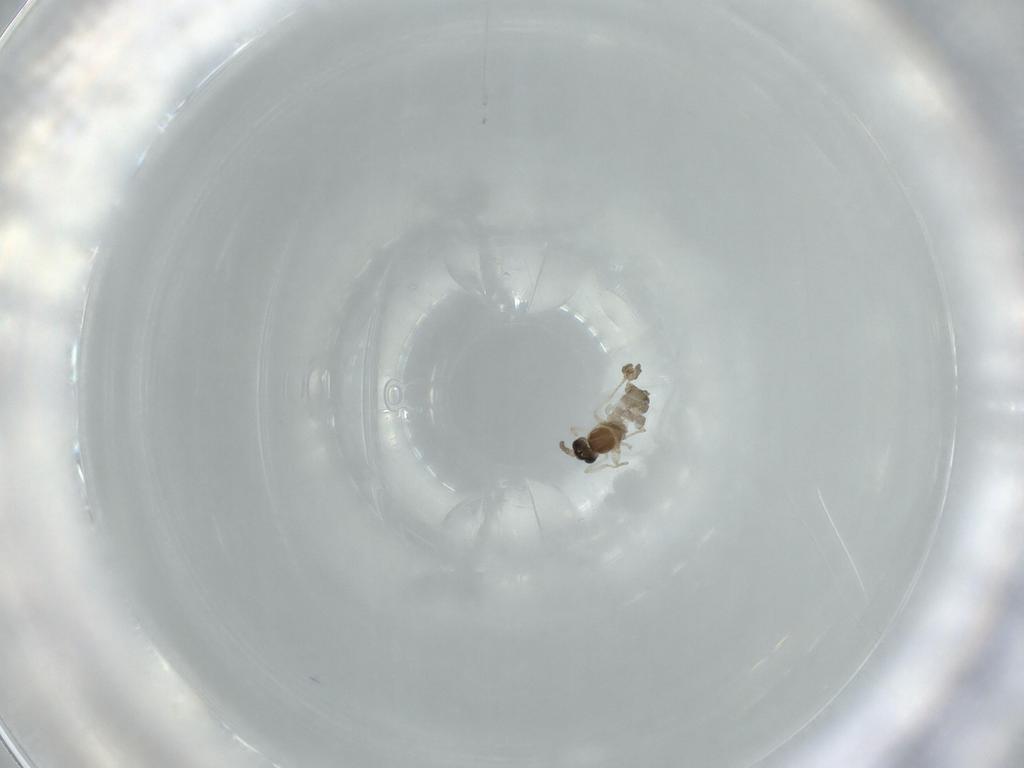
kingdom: Animalia
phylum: Arthropoda
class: Insecta
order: Diptera
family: Cecidomyiidae
